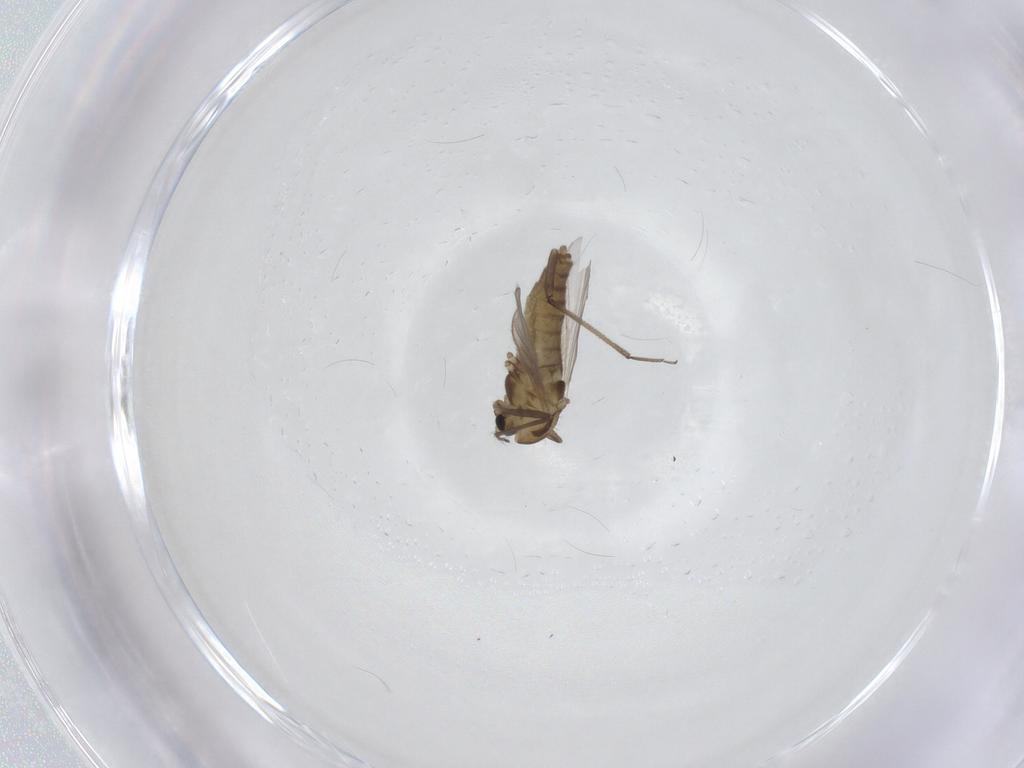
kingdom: Animalia
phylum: Arthropoda
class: Insecta
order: Diptera
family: Chironomidae
